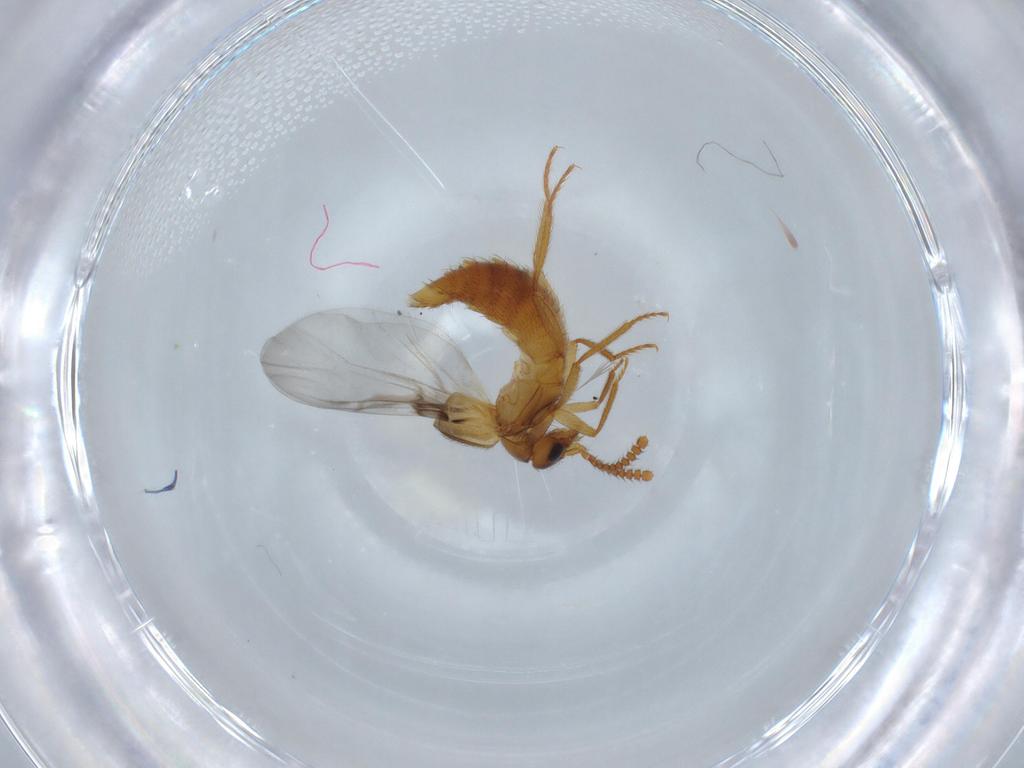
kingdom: Animalia
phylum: Arthropoda
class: Insecta
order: Coleoptera
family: Staphylinidae
